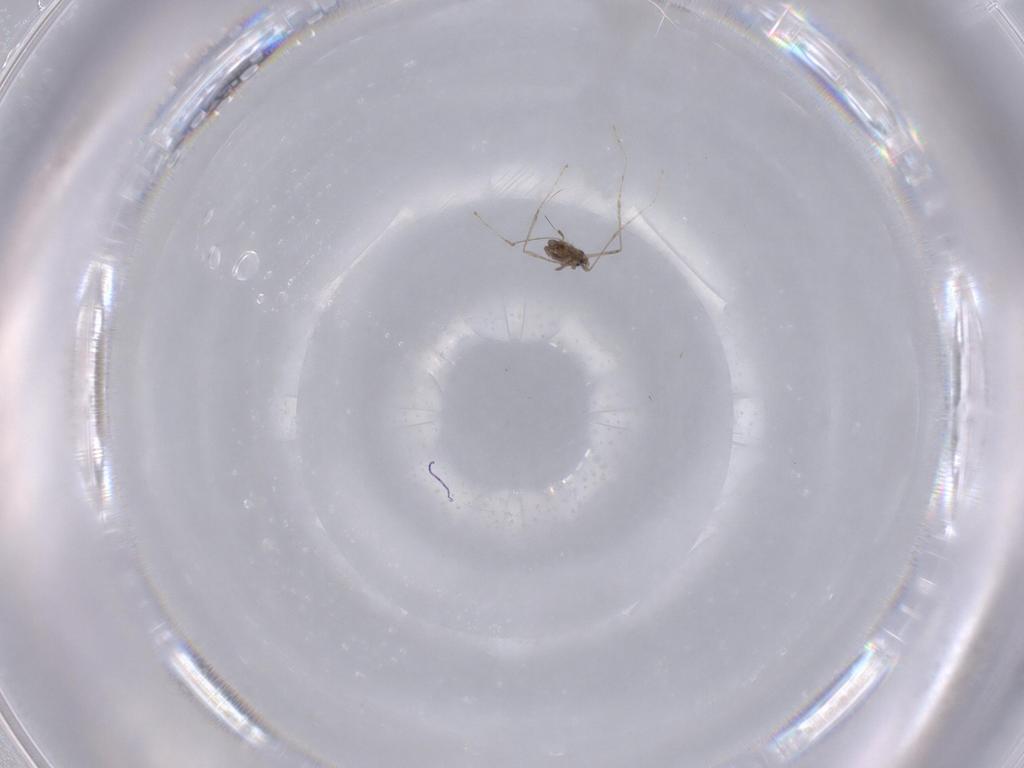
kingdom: Animalia
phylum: Arthropoda
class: Insecta
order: Diptera
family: Cecidomyiidae
